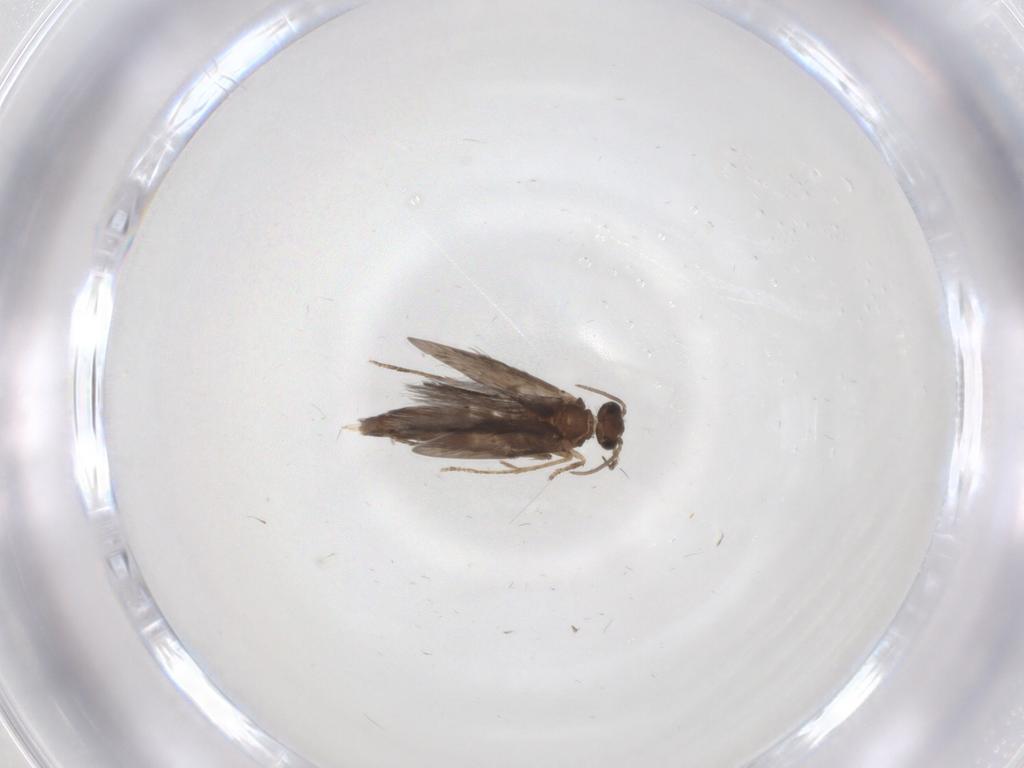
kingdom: Animalia
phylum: Arthropoda
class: Insecta
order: Trichoptera
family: Hydroptilidae
